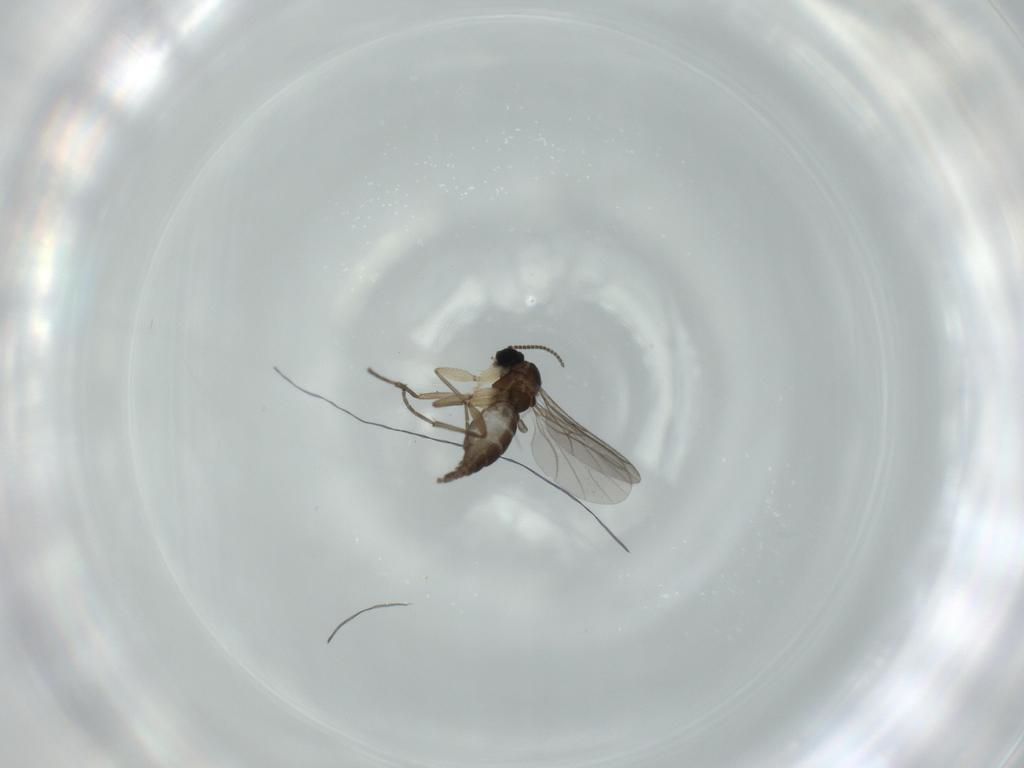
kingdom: Animalia
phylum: Arthropoda
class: Insecta
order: Diptera
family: Sciaridae
